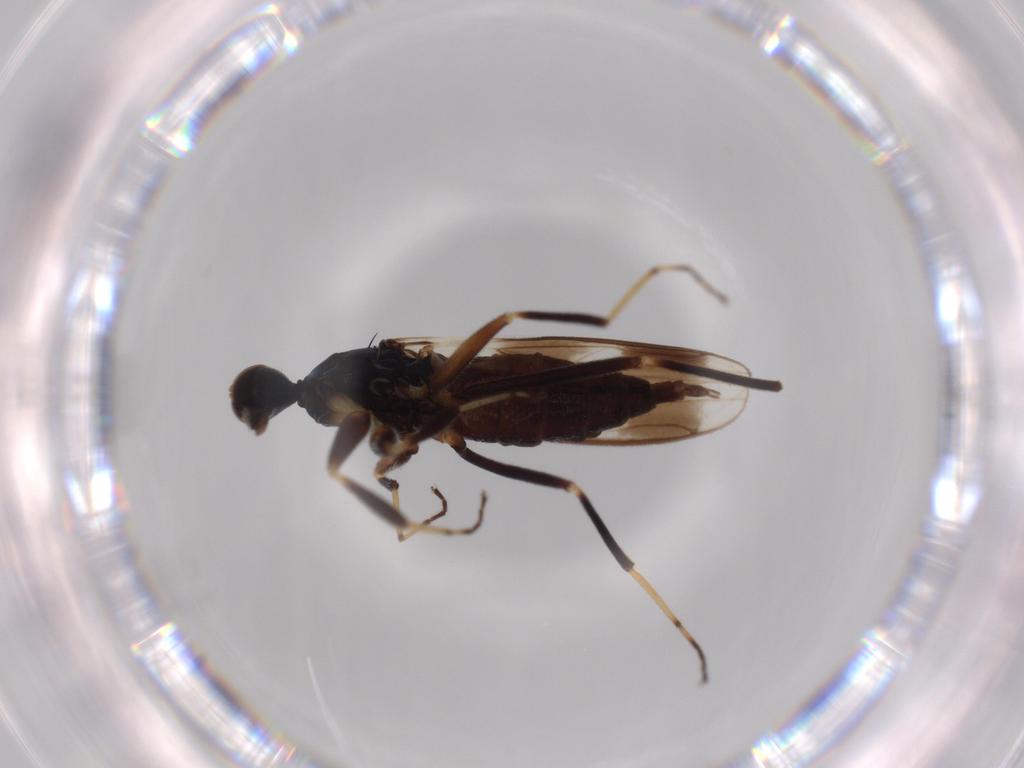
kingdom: Animalia
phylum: Arthropoda
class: Insecta
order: Diptera
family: Hybotidae
